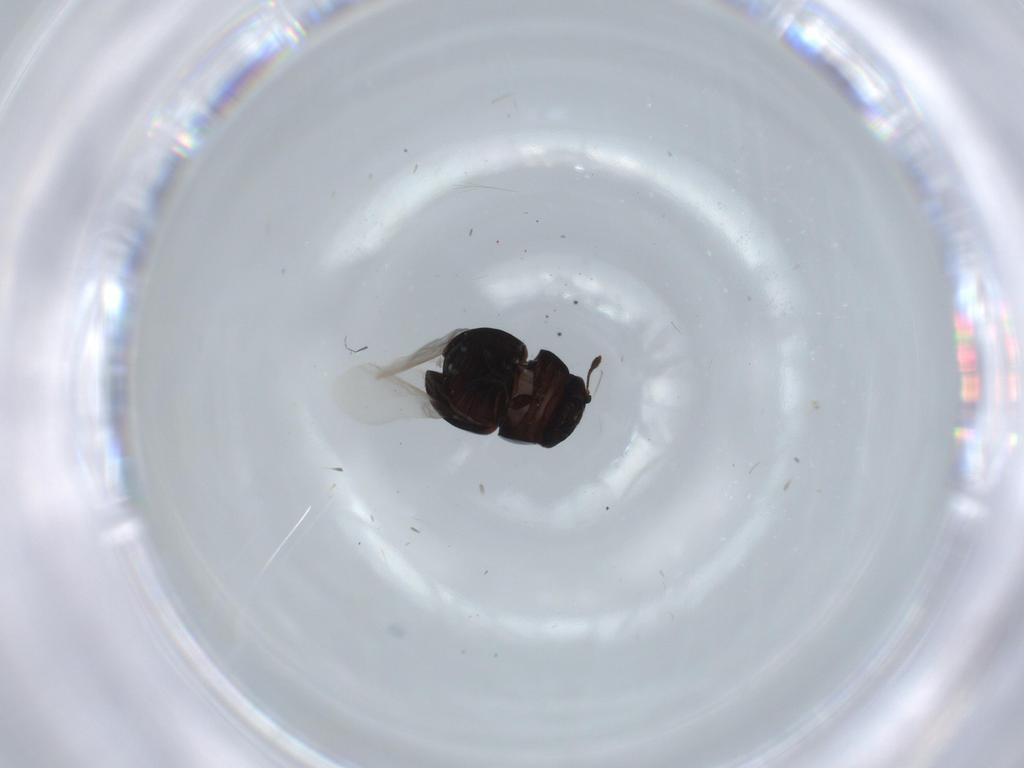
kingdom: Animalia
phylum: Arthropoda
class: Insecta
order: Coleoptera
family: Cybocephalidae
